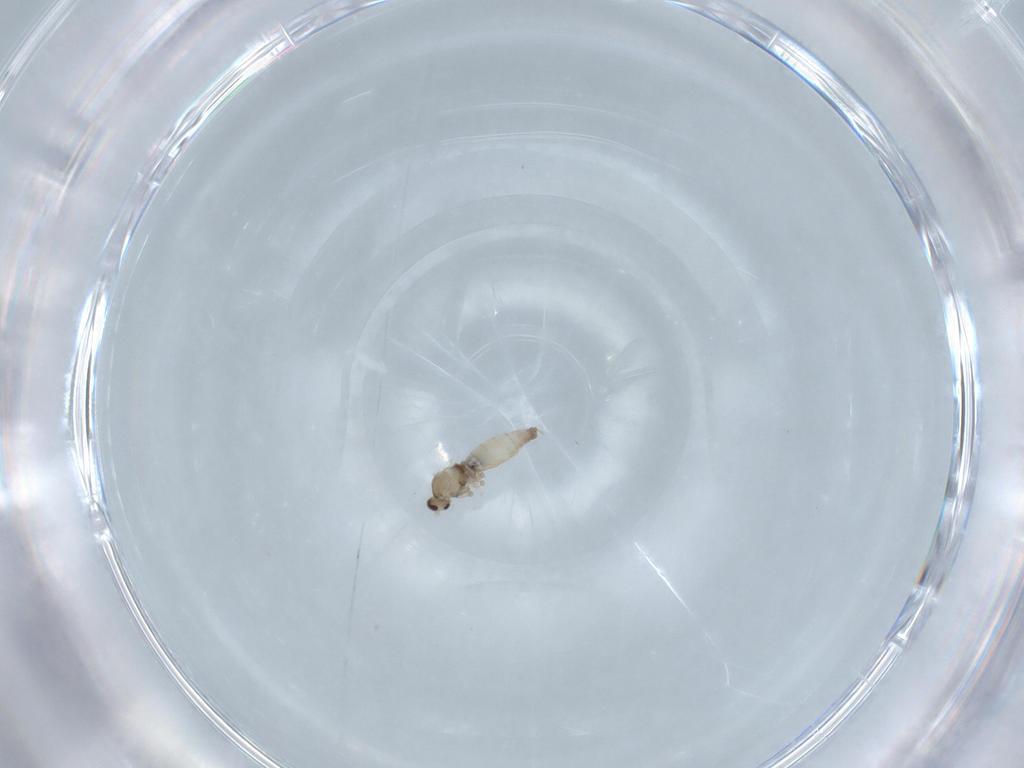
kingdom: Animalia
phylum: Arthropoda
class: Insecta
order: Diptera
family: Cecidomyiidae
